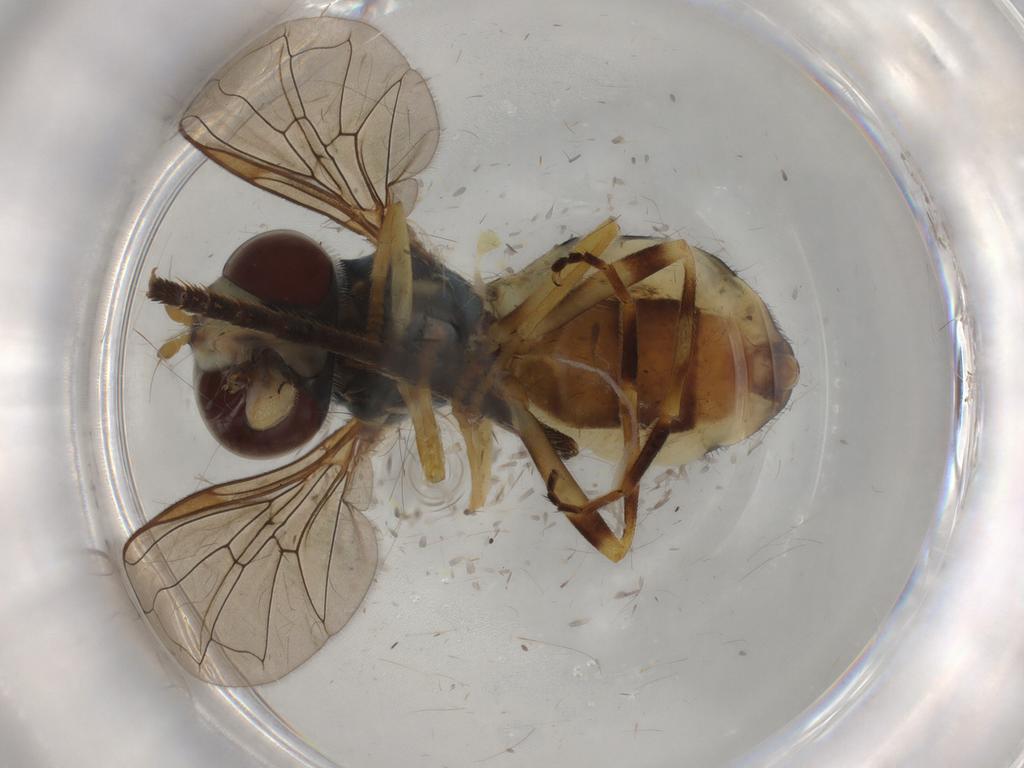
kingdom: Animalia
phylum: Arthropoda
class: Insecta
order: Diptera
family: Syrphidae
